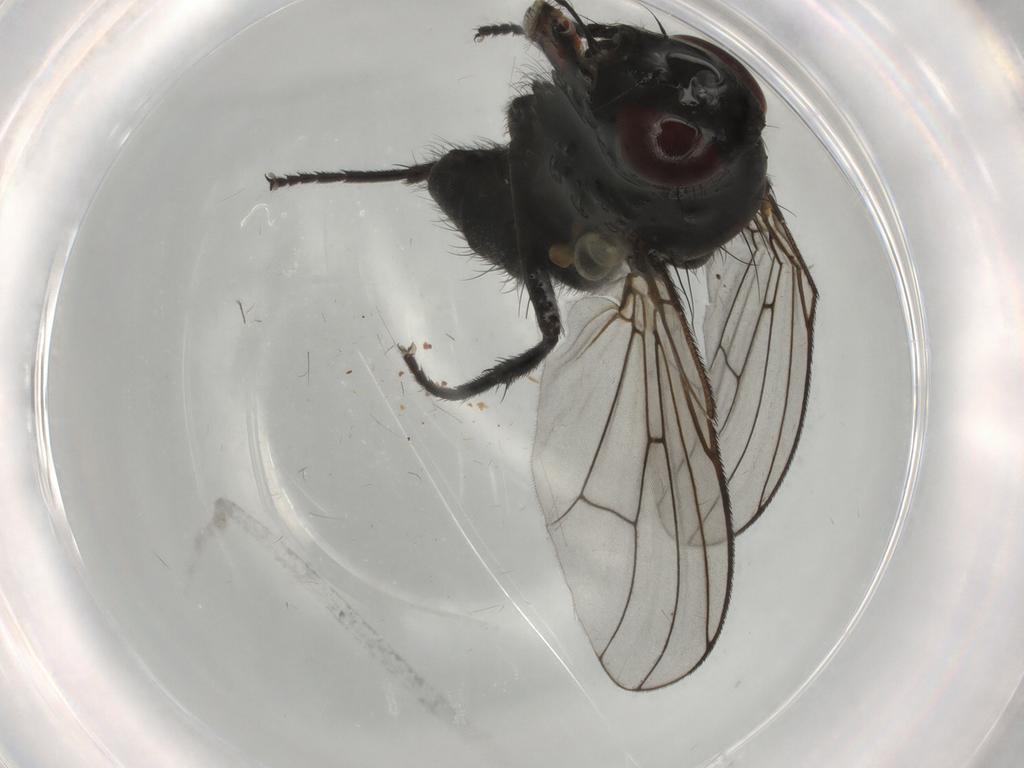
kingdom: Animalia
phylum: Arthropoda
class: Insecta
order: Diptera
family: Muscidae
